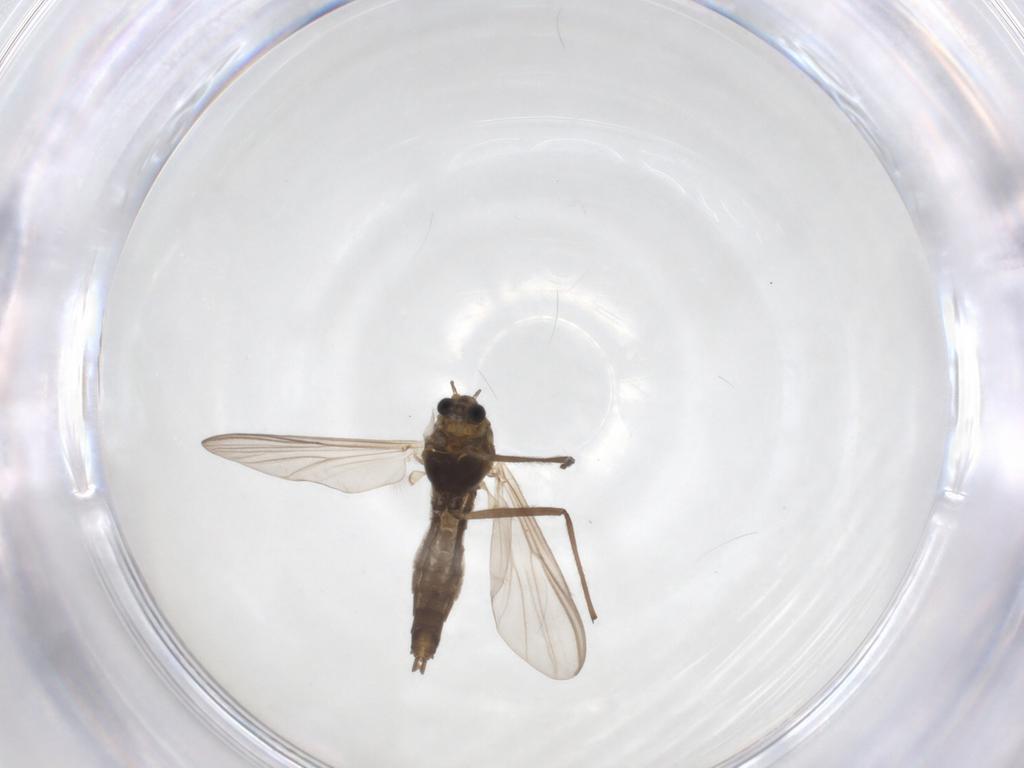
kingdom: Animalia
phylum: Arthropoda
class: Insecta
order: Diptera
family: Chironomidae
